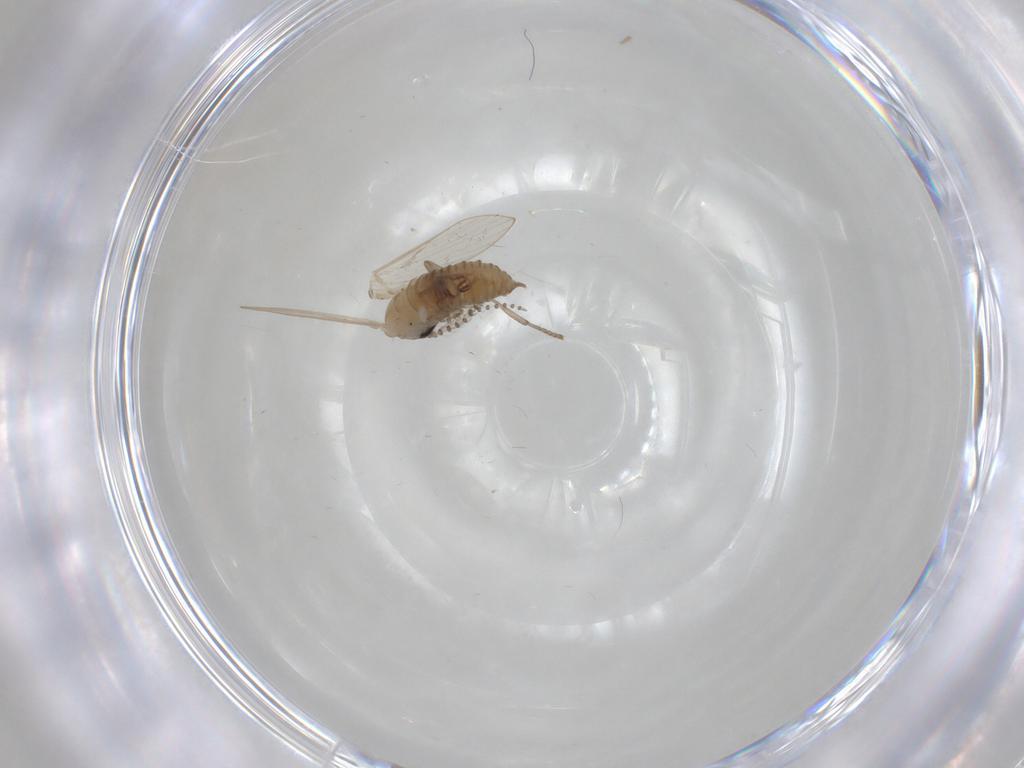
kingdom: Animalia
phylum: Arthropoda
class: Insecta
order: Diptera
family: Psychodidae
